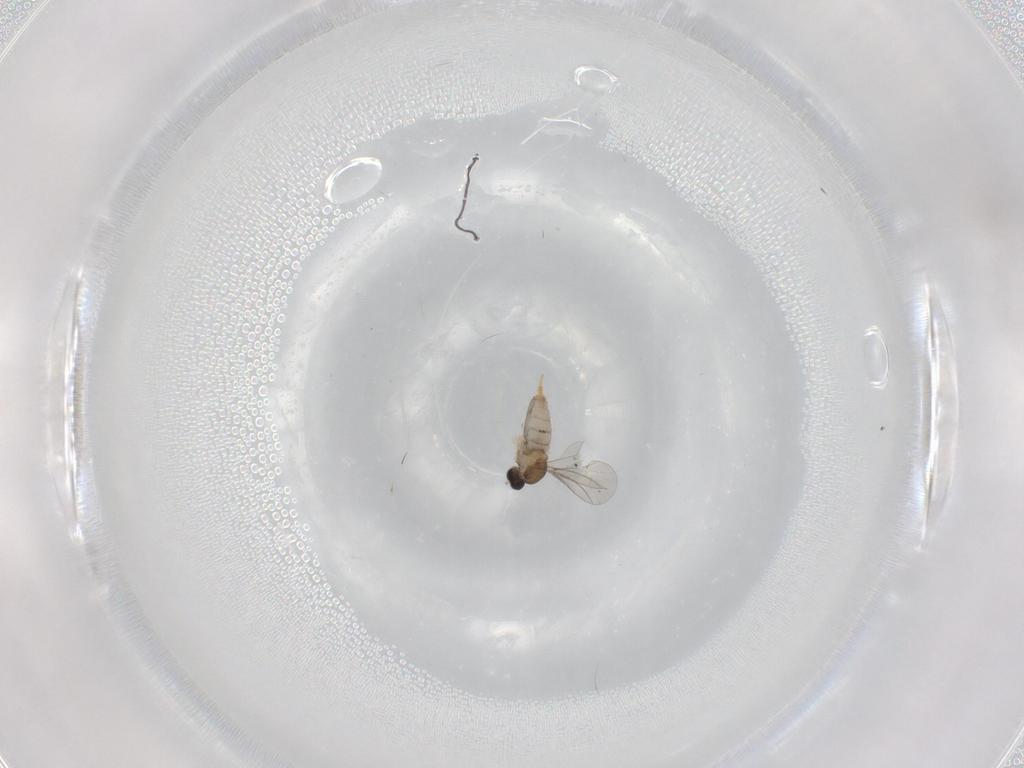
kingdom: Animalia
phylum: Arthropoda
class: Insecta
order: Diptera
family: Cecidomyiidae
